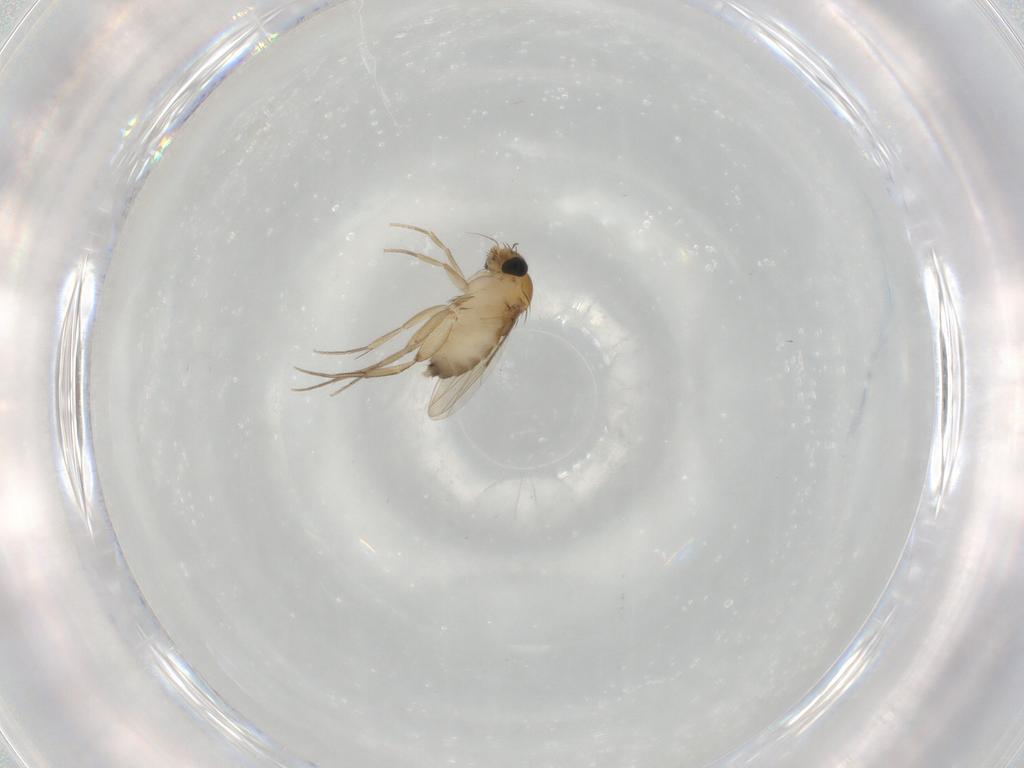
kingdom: Animalia
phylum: Arthropoda
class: Insecta
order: Diptera
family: Phoridae
